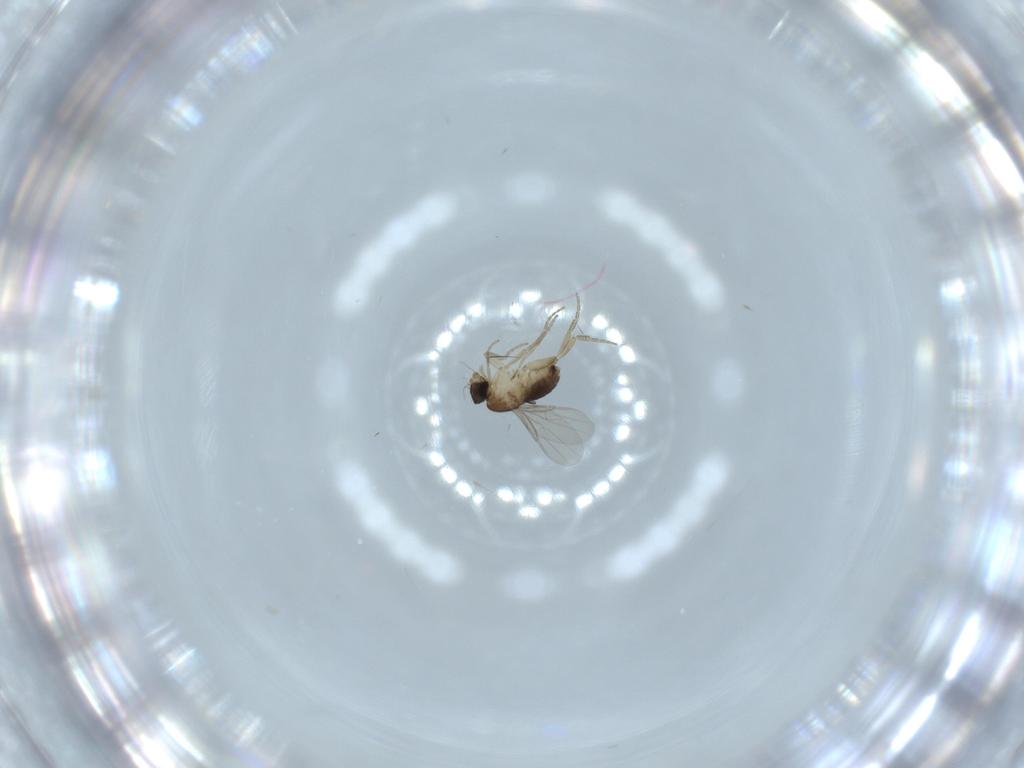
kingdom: Animalia
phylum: Arthropoda
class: Insecta
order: Diptera
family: Phoridae
